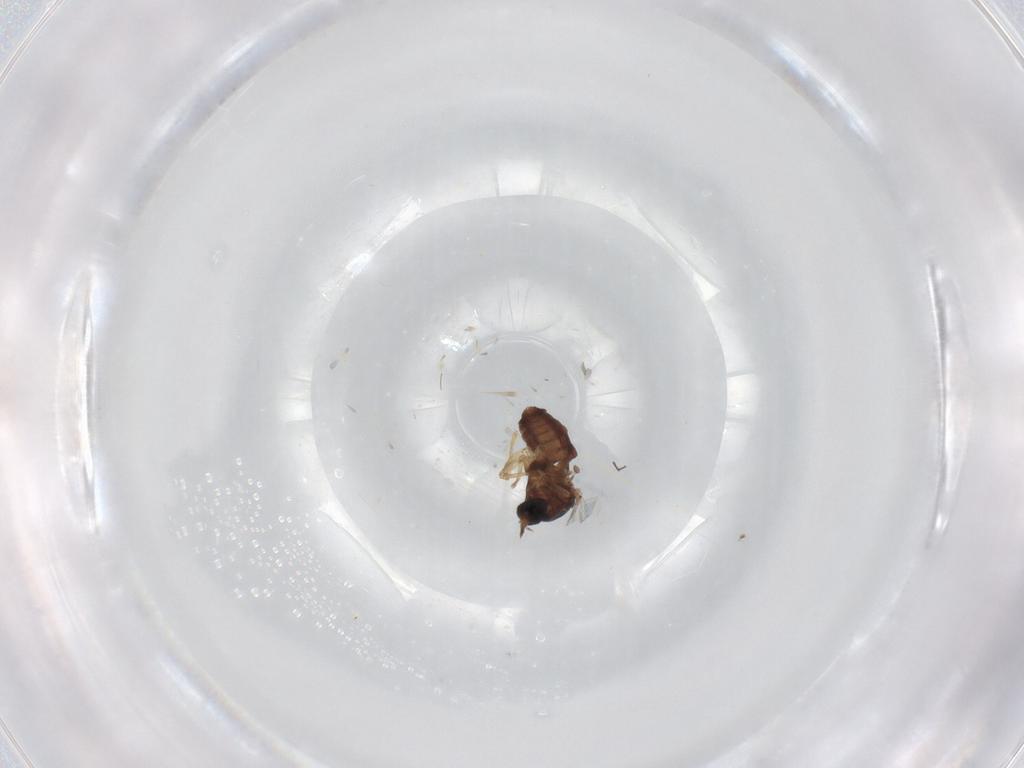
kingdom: Animalia
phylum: Arthropoda
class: Insecta
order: Diptera
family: Ceratopogonidae
